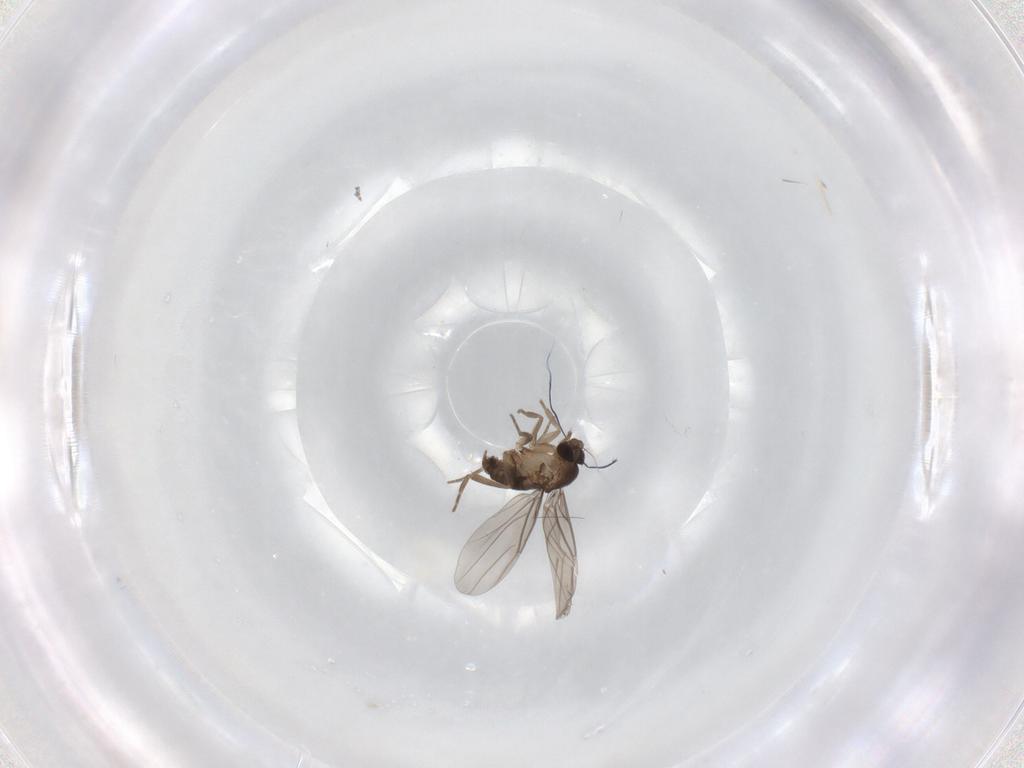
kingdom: Animalia
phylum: Arthropoda
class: Insecta
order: Diptera
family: Phoridae
